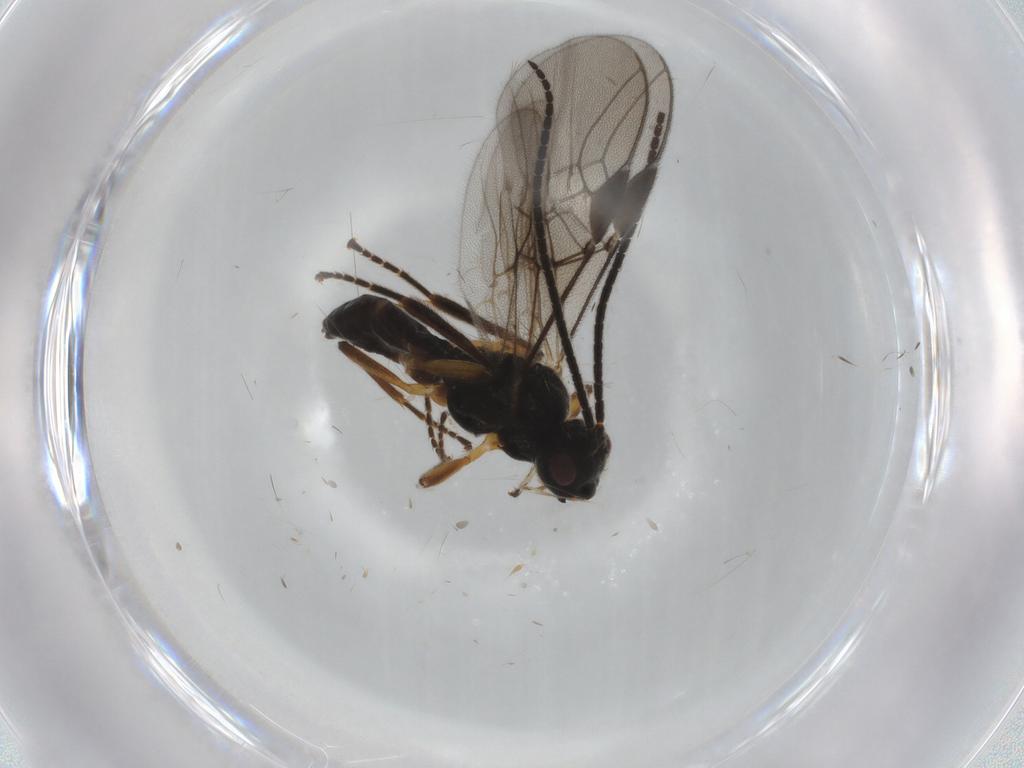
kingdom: Animalia
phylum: Arthropoda
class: Insecta
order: Hymenoptera
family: Braconidae
